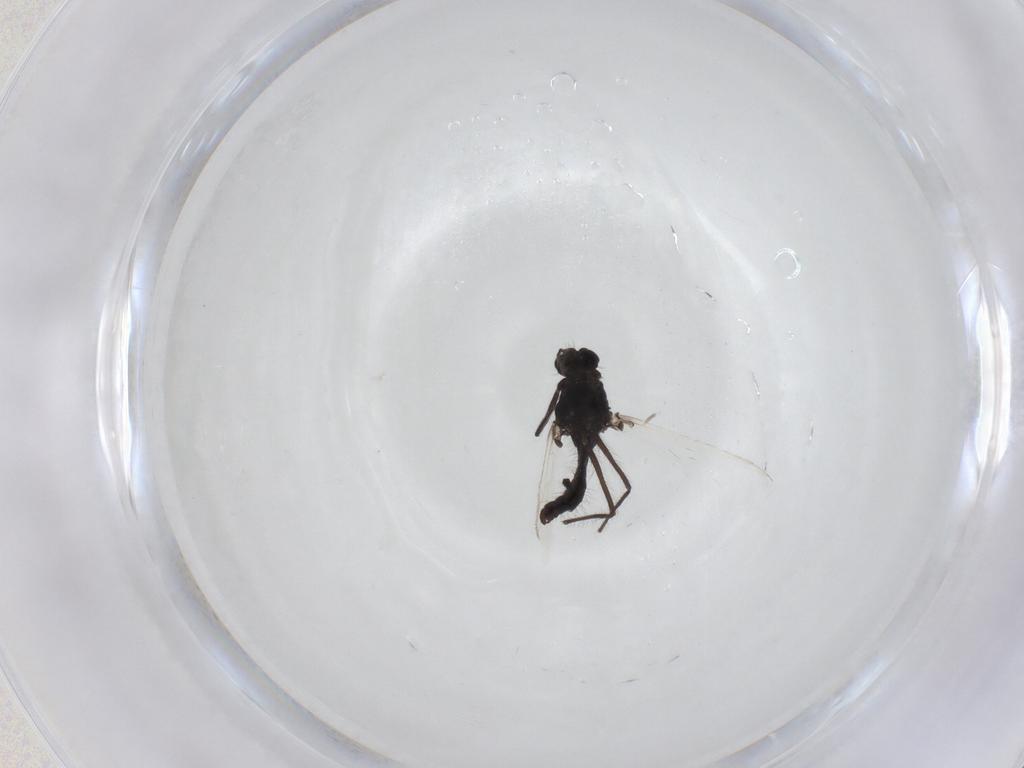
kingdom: Animalia
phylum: Arthropoda
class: Insecta
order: Diptera
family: Chironomidae
